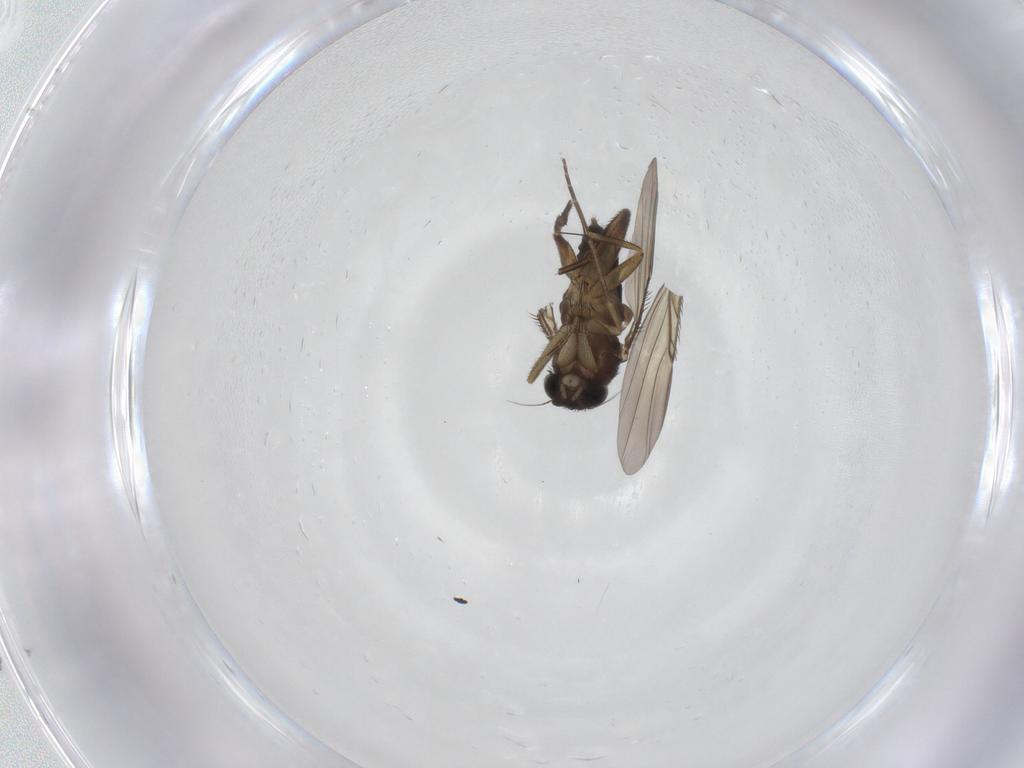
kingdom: Animalia
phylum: Arthropoda
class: Insecta
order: Diptera
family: Phoridae
